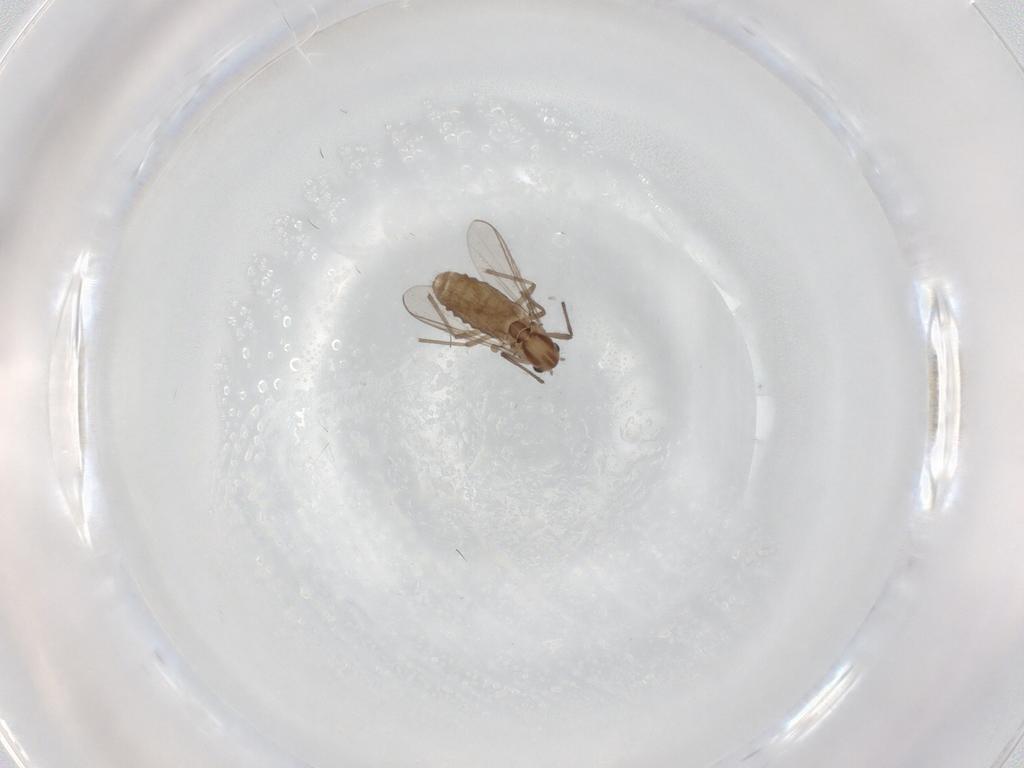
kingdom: Animalia
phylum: Arthropoda
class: Insecta
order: Diptera
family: Chironomidae
